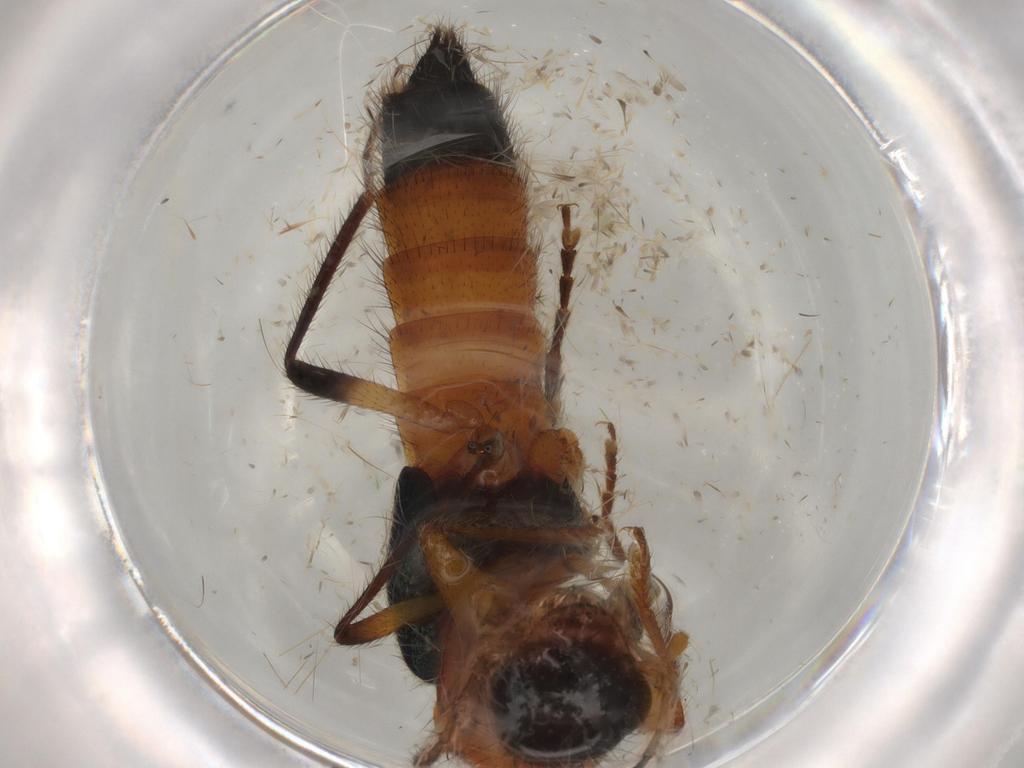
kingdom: Animalia
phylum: Arthropoda
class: Insecta
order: Coleoptera
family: Staphylinidae
